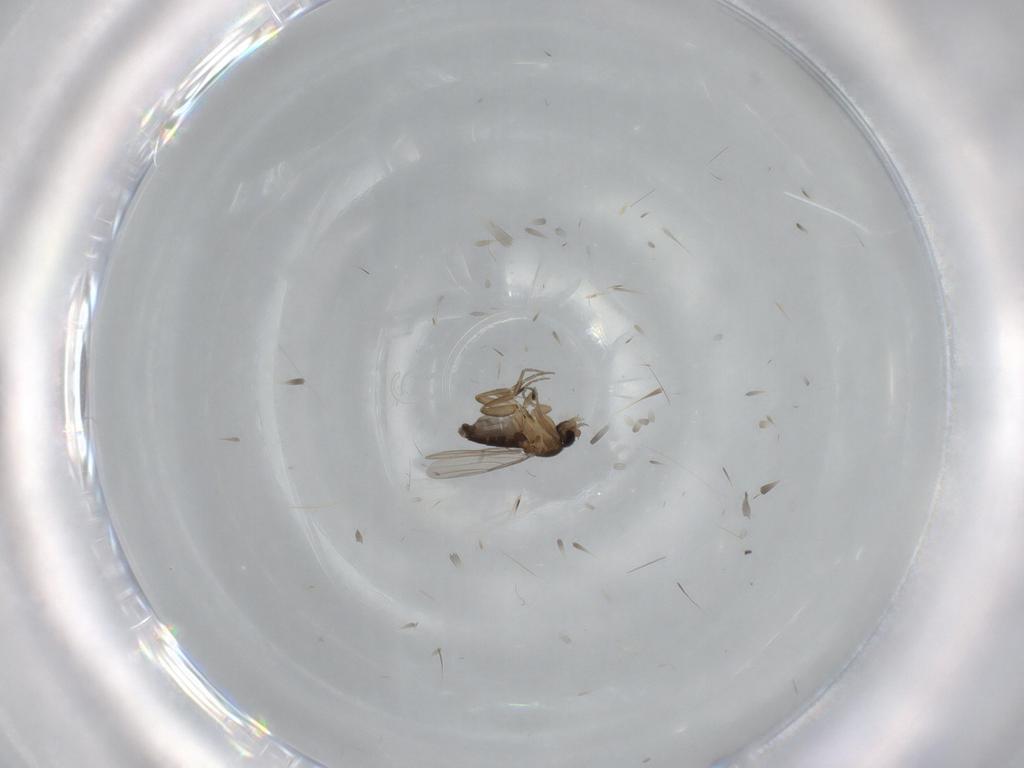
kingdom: Animalia
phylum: Arthropoda
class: Insecta
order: Diptera
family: Phoridae
